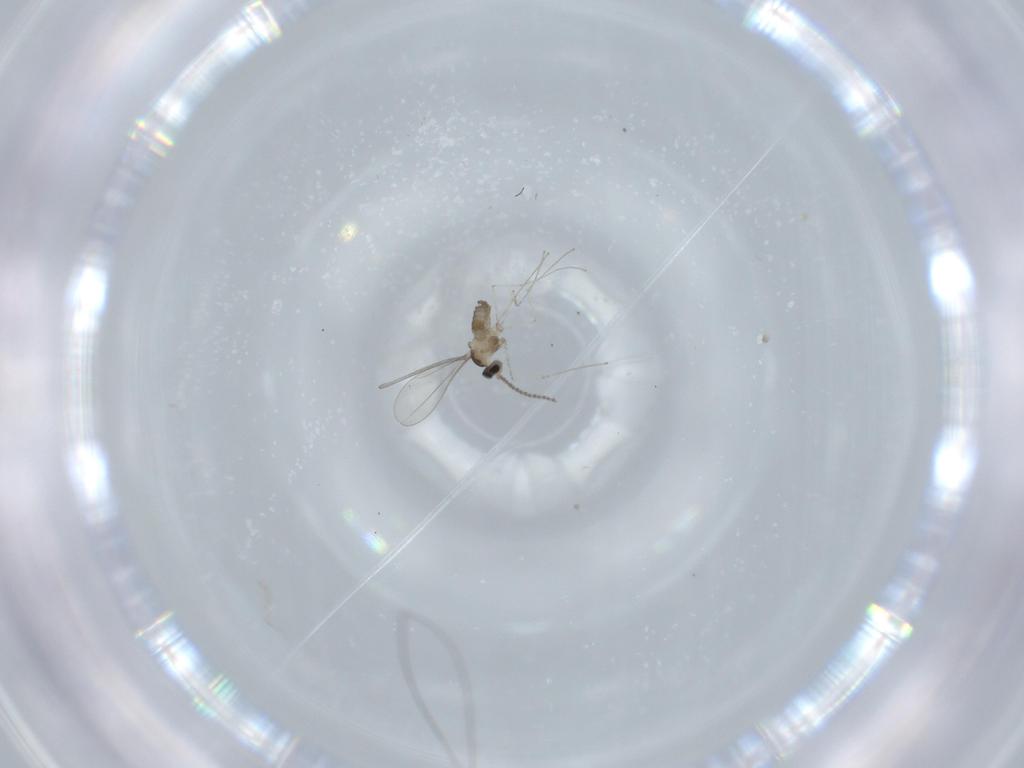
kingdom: Animalia
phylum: Arthropoda
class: Insecta
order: Diptera
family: Cecidomyiidae
